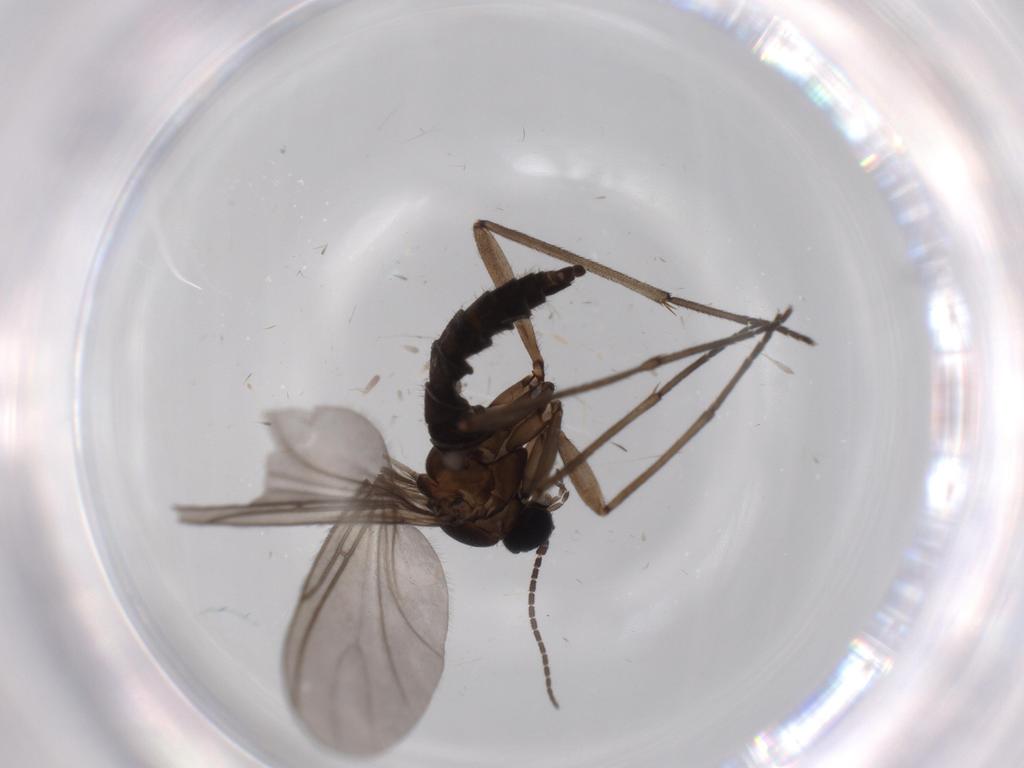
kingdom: Animalia
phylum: Arthropoda
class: Insecta
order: Diptera
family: Sciaridae
